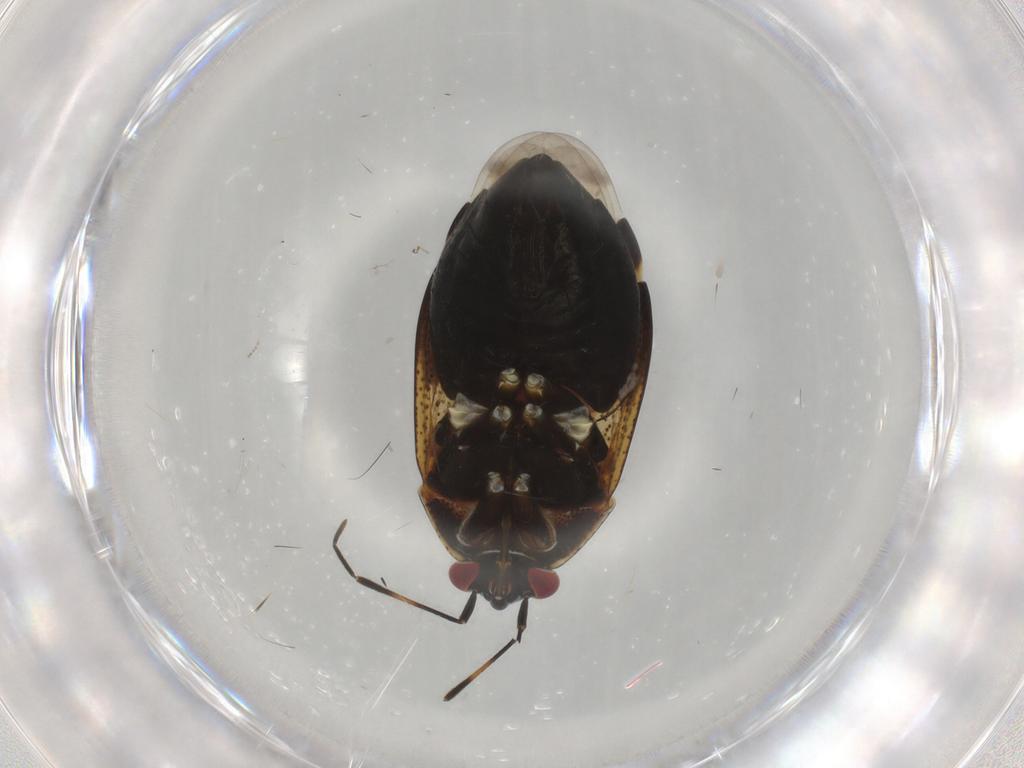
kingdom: Animalia
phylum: Arthropoda
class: Insecta
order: Hemiptera
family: Miridae
